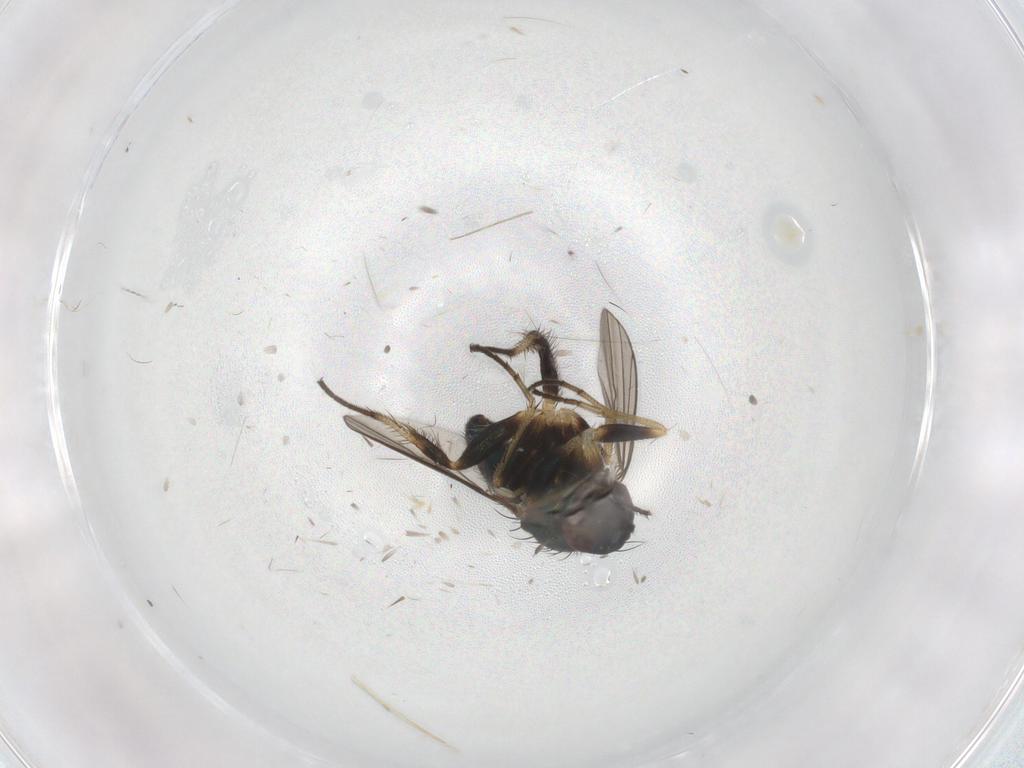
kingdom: Animalia
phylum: Arthropoda
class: Insecta
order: Diptera
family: Dolichopodidae
